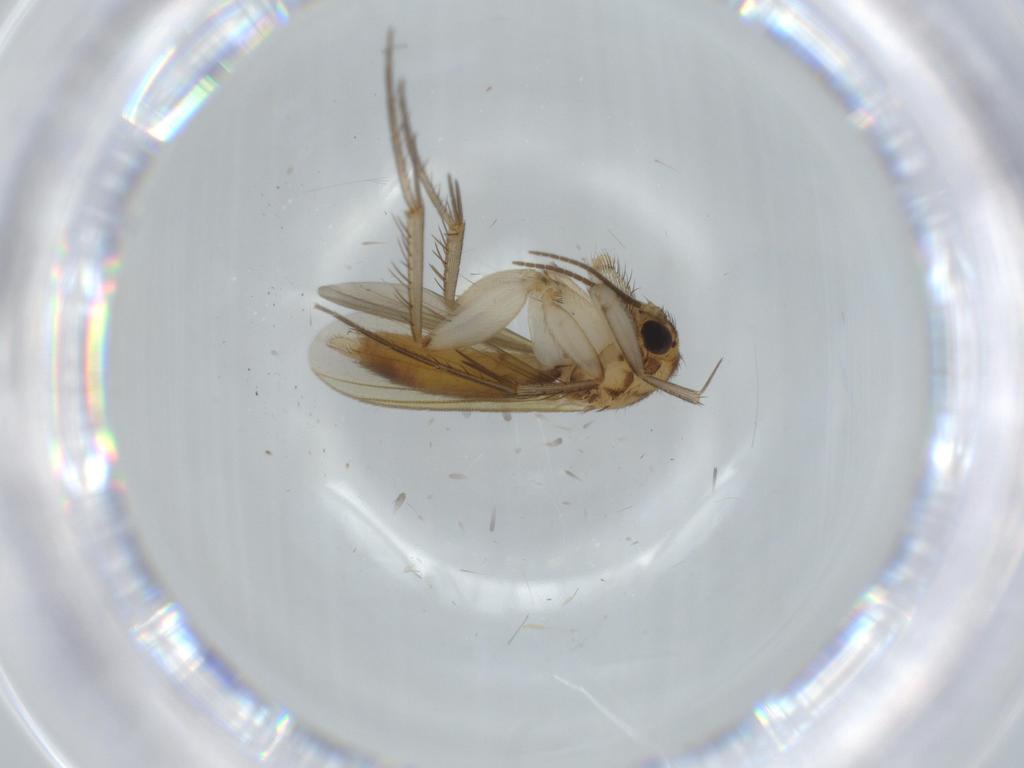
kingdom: Animalia
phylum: Arthropoda
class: Insecta
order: Diptera
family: Mycetophilidae
